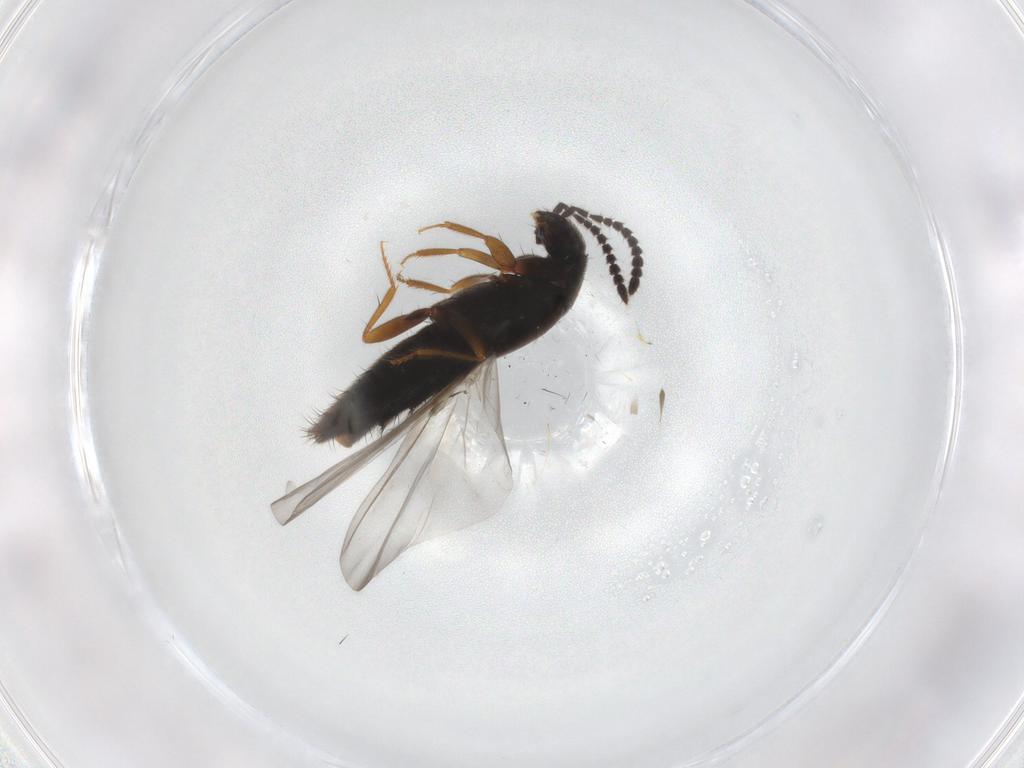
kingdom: Animalia
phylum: Arthropoda
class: Insecta
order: Coleoptera
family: Staphylinidae
